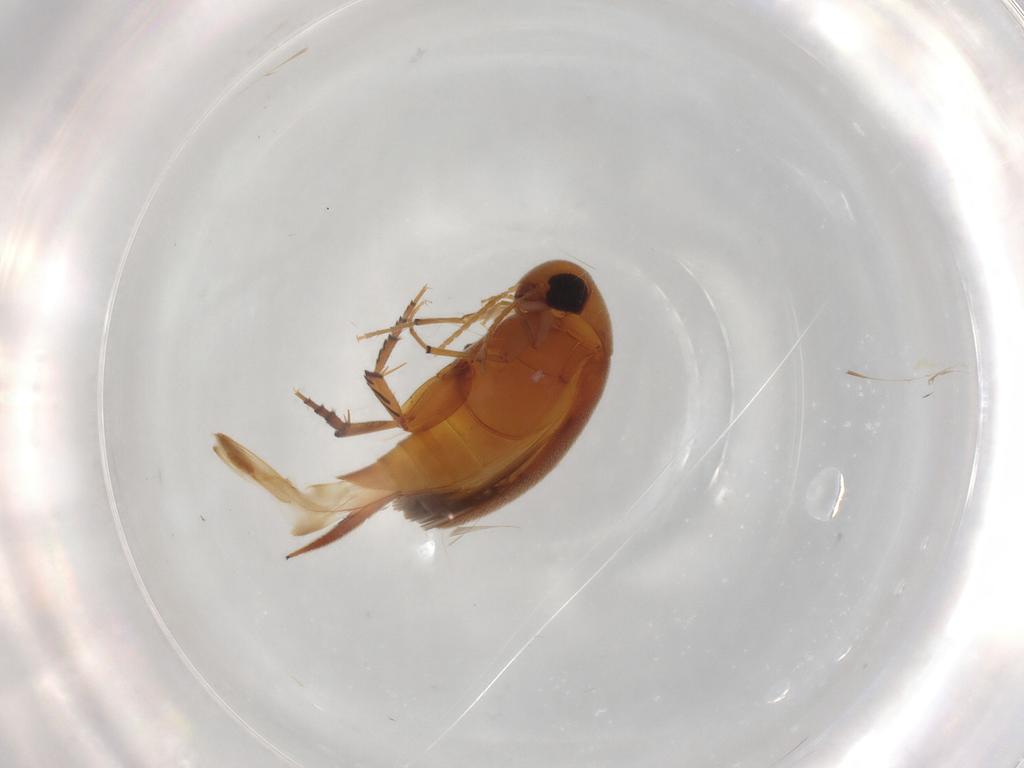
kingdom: Animalia
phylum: Arthropoda
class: Insecta
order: Coleoptera
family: Mordellidae
